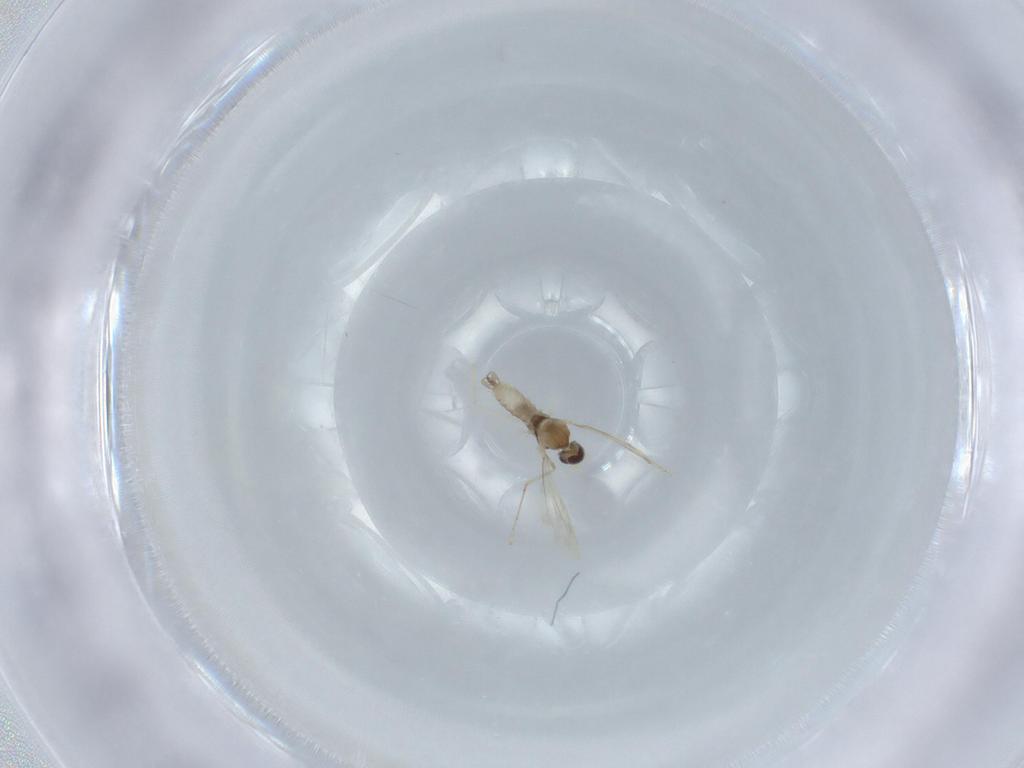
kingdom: Animalia
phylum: Arthropoda
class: Insecta
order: Diptera
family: Cecidomyiidae
